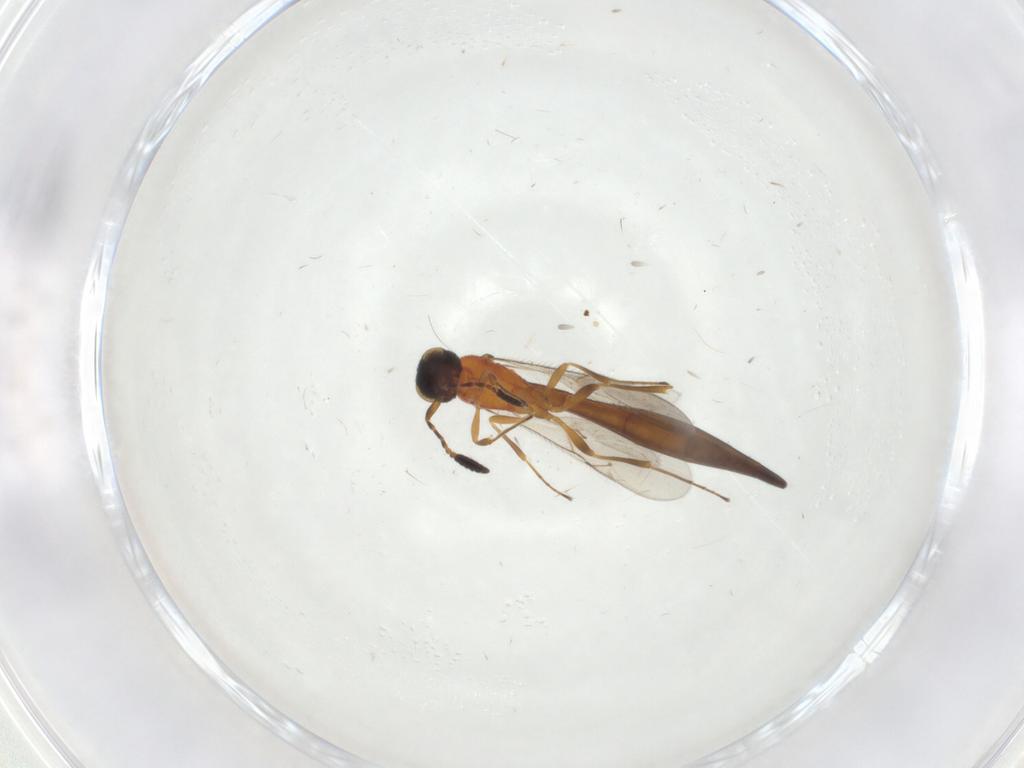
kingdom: Animalia
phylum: Arthropoda
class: Insecta
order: Hymenoptera
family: Scelionidae
